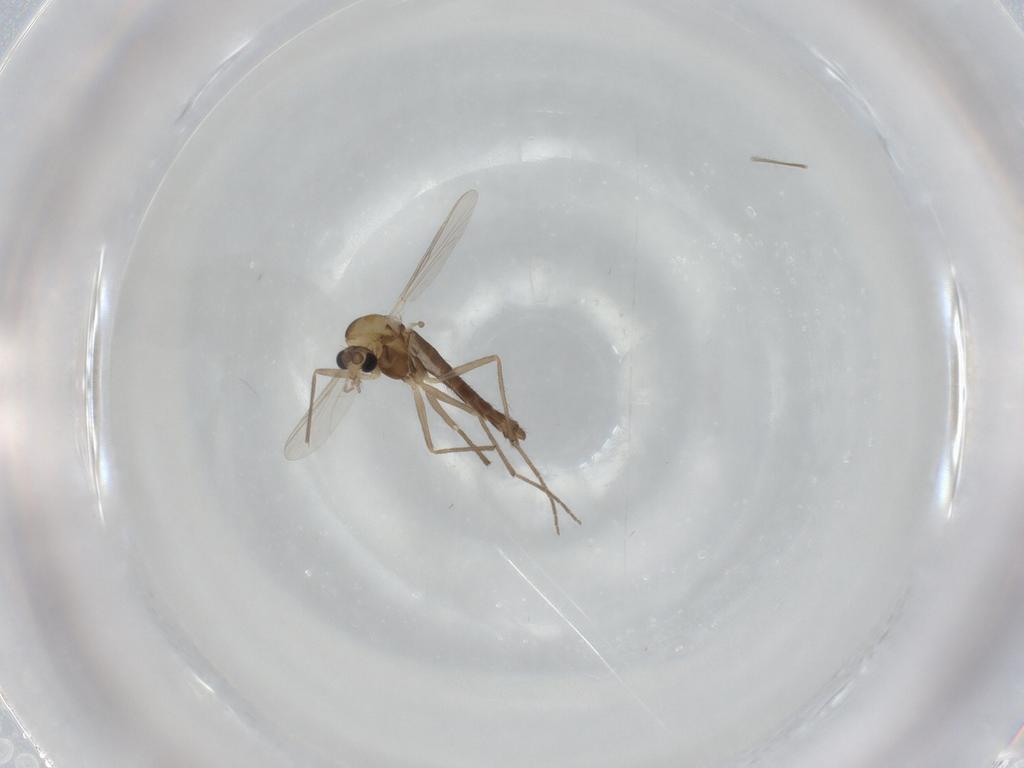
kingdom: Animalia
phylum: Arthropoda
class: Insecta
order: Diptera
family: Chironomidae
